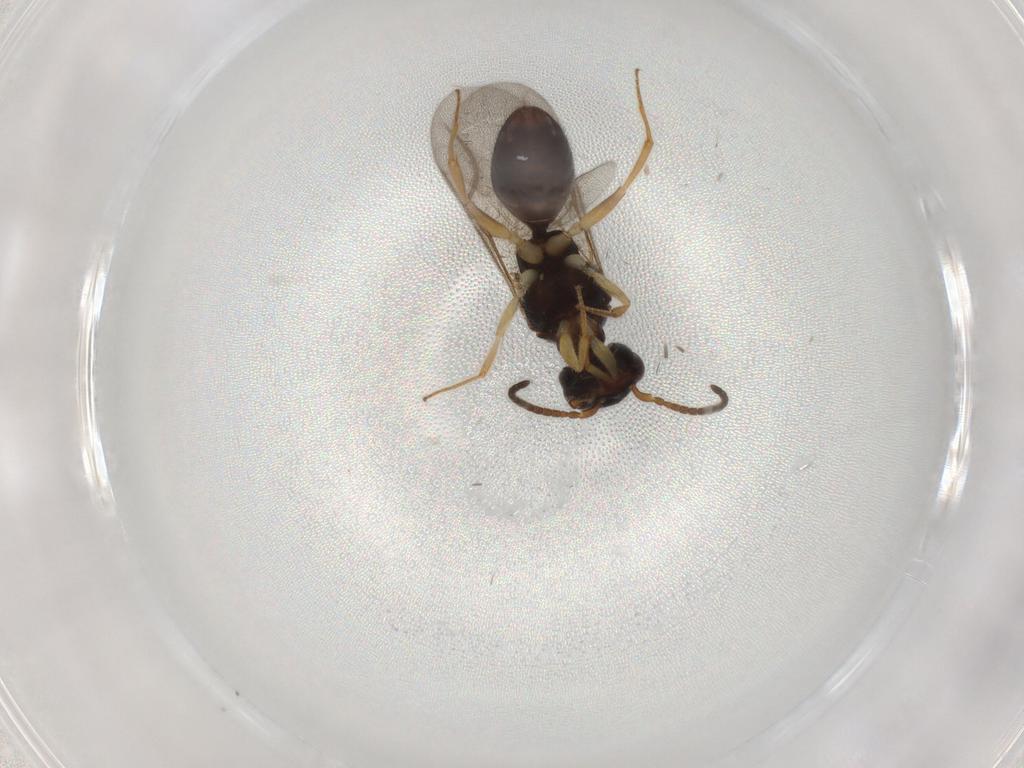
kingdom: Animalia
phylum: Arthropoda
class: Insecta
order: Hymenoptera
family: Bethylidae
